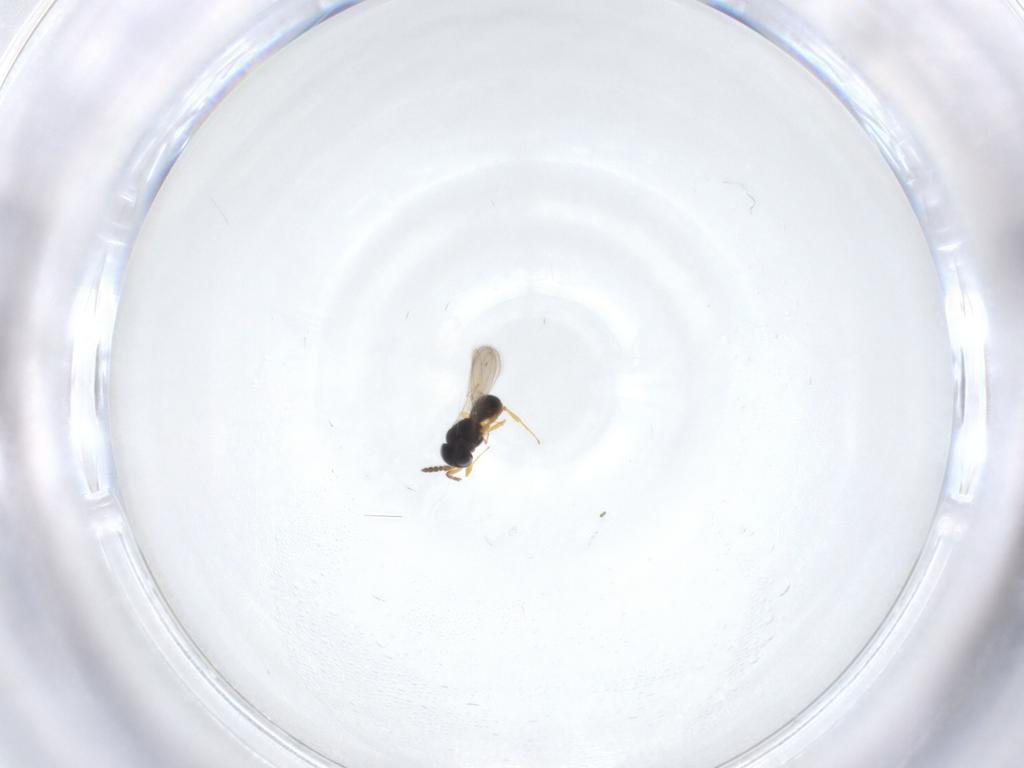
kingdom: Animalia
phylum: Arthropoda
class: Insecta
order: Hymenoptera
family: Scelionidae
